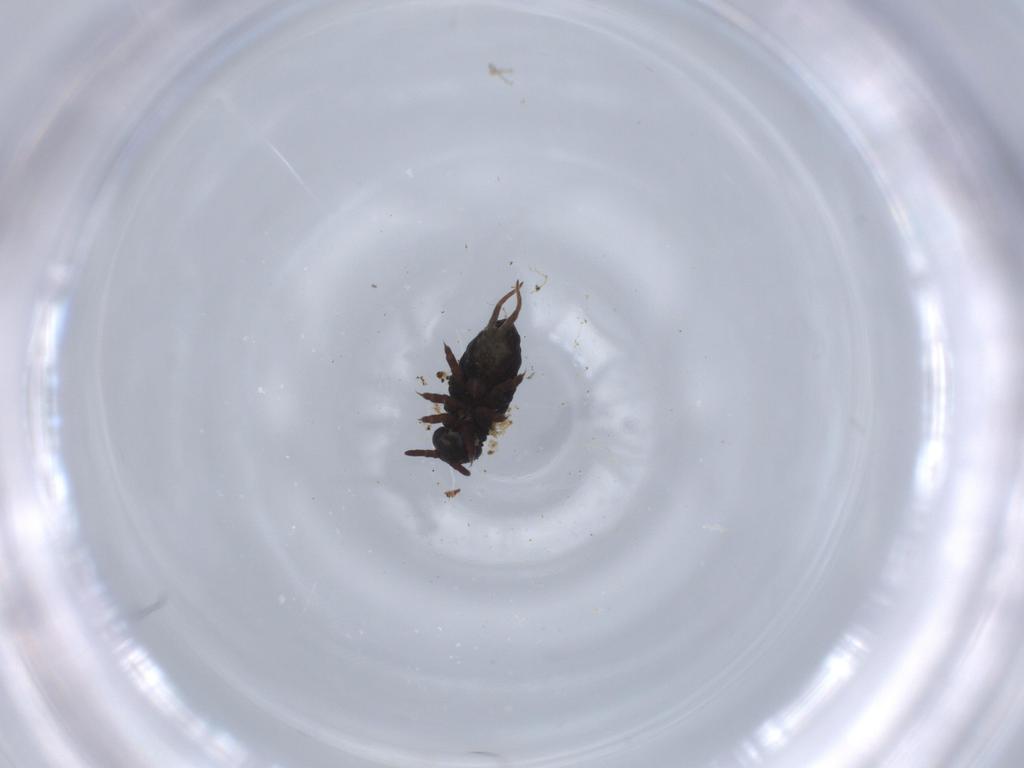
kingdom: Animalia
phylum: Arthropoda
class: Collembola
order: Poduromorpha
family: Poduridae
